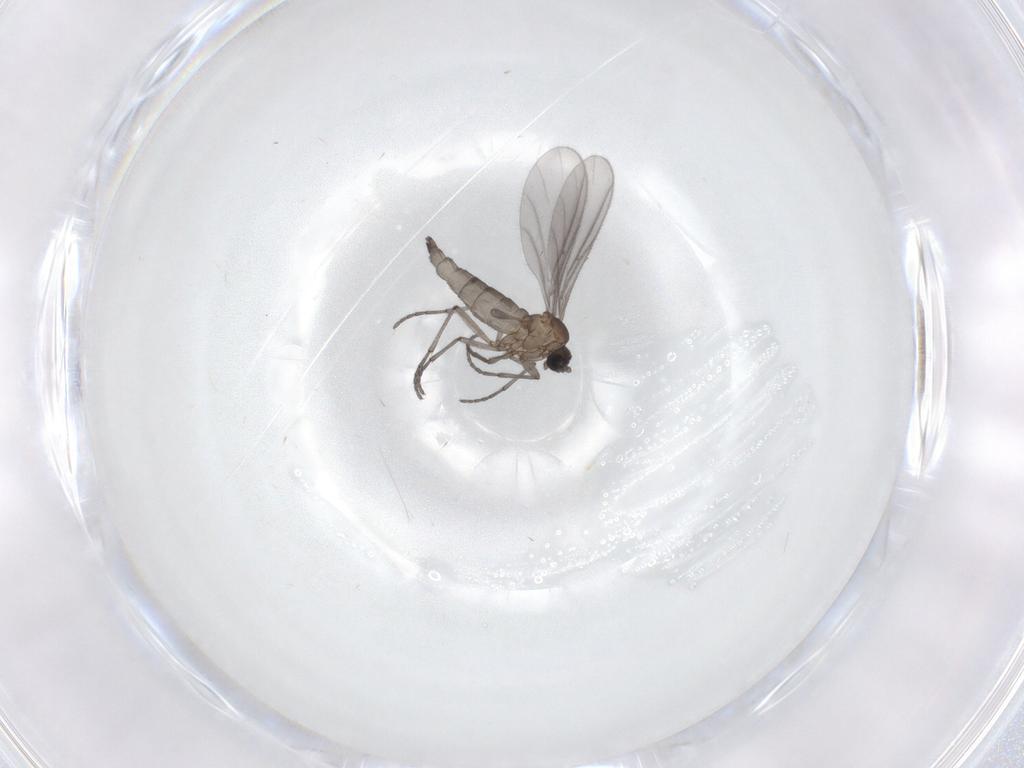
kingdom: Animalia
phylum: Arthropoda
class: Insecta
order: Diptera
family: Sciaridae
